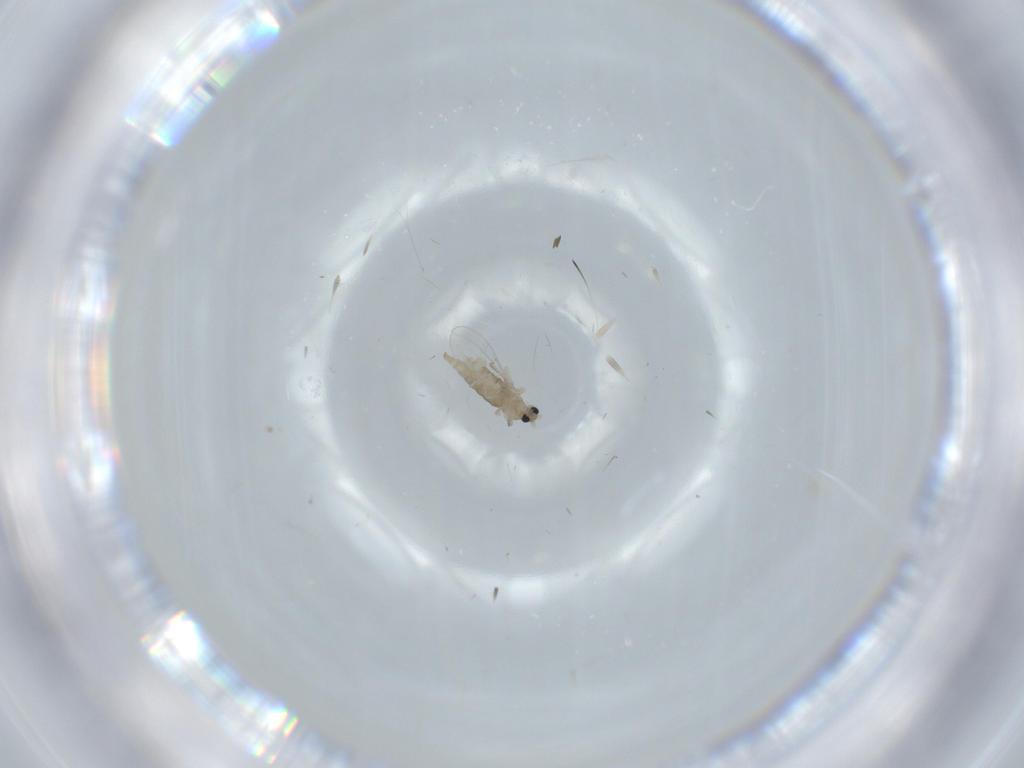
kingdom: Animalia
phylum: Arthropoda
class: Insecta
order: Diptera
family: Cecidomyiidae
